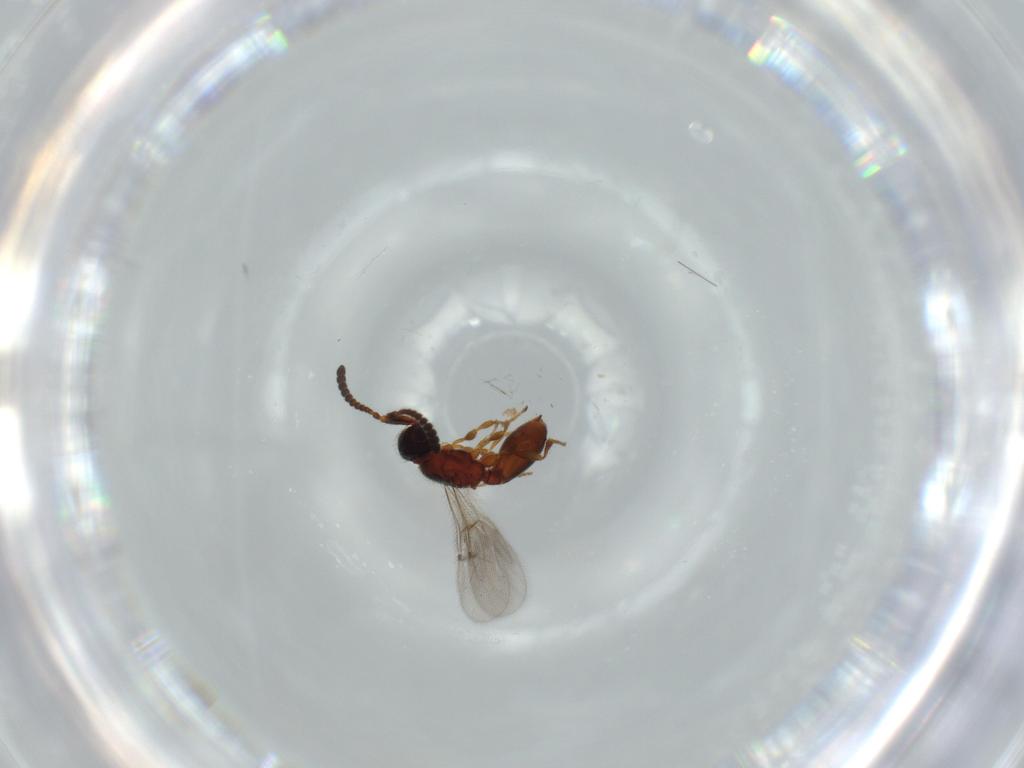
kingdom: Animalia
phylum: Arthropoda
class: Insecta
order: Hymenoptera
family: Diapriidae
